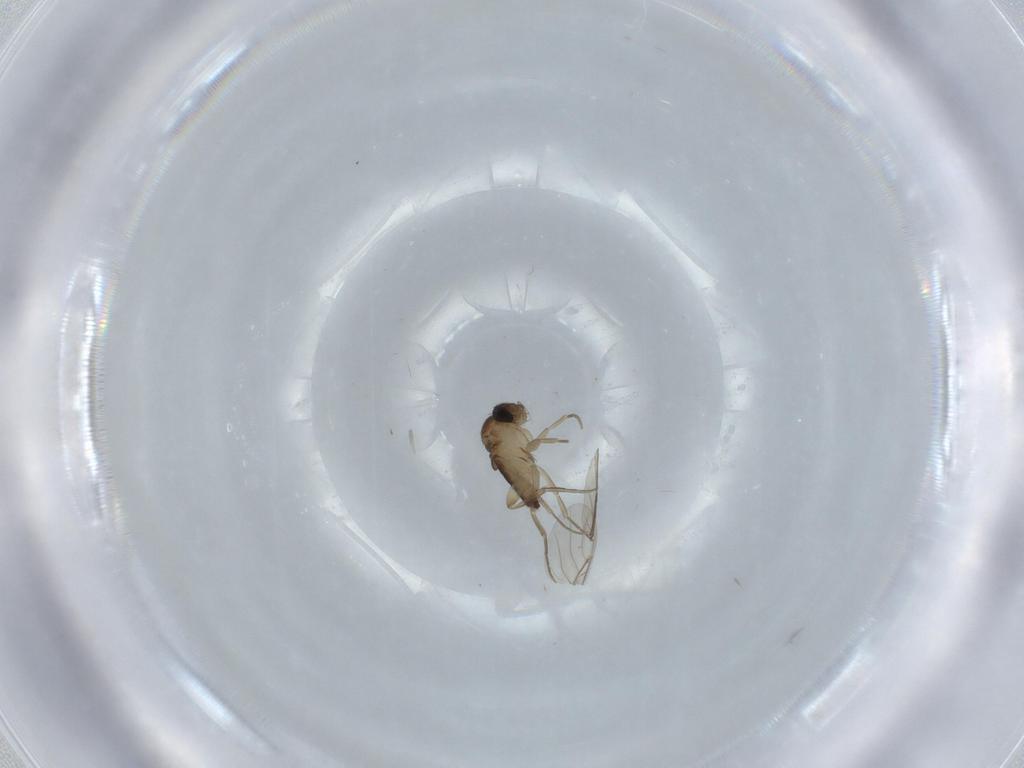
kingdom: Animalia
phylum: Arthropoda
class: Insecta
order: Diptera
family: Phoridae
